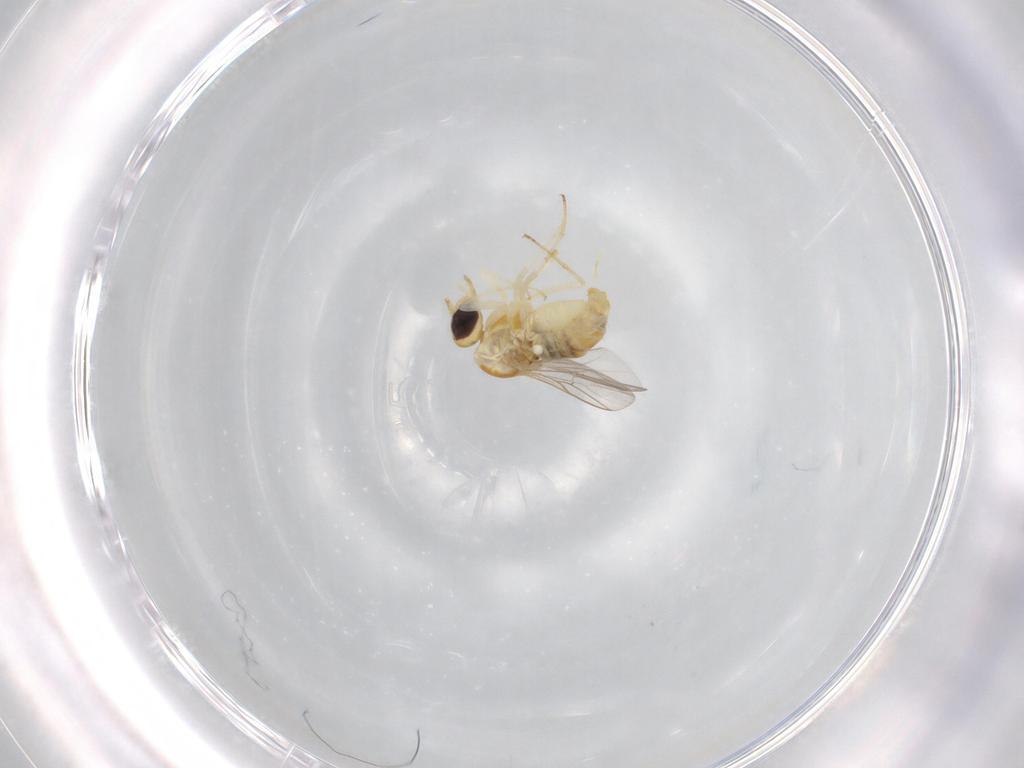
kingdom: Animalia
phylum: Arthropoda
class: Insecta
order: Diptera
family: Mythicomyiidae
